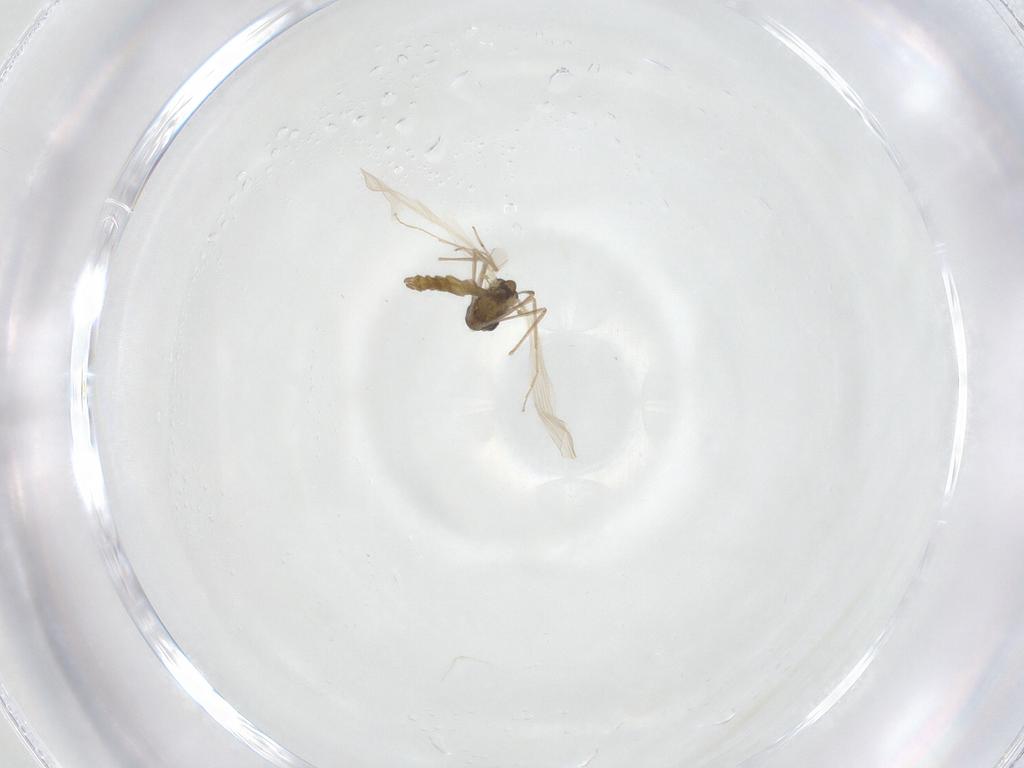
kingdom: Animalia
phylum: Arthropoda
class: Insecta
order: Diptera
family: Chironomidae
